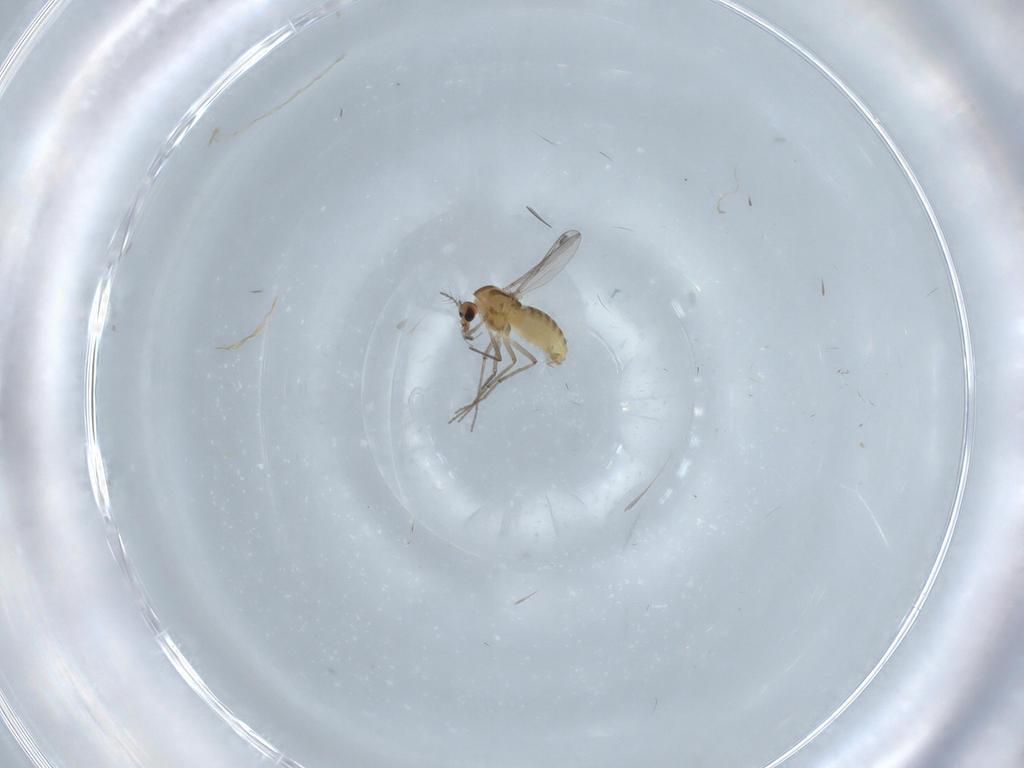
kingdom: Animalia
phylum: Arthropoda
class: Insecta
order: Diptera
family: Chironomidae
